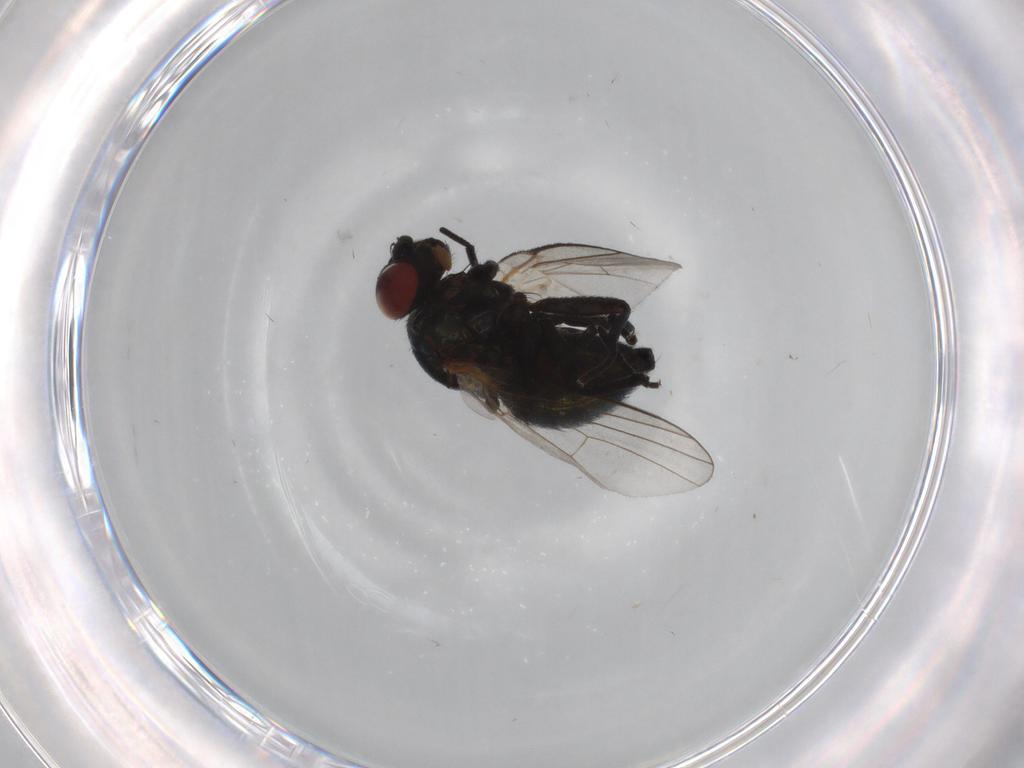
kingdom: Animalia
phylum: Arthropoda
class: Insecta
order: Diptera
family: Agromyzidae
